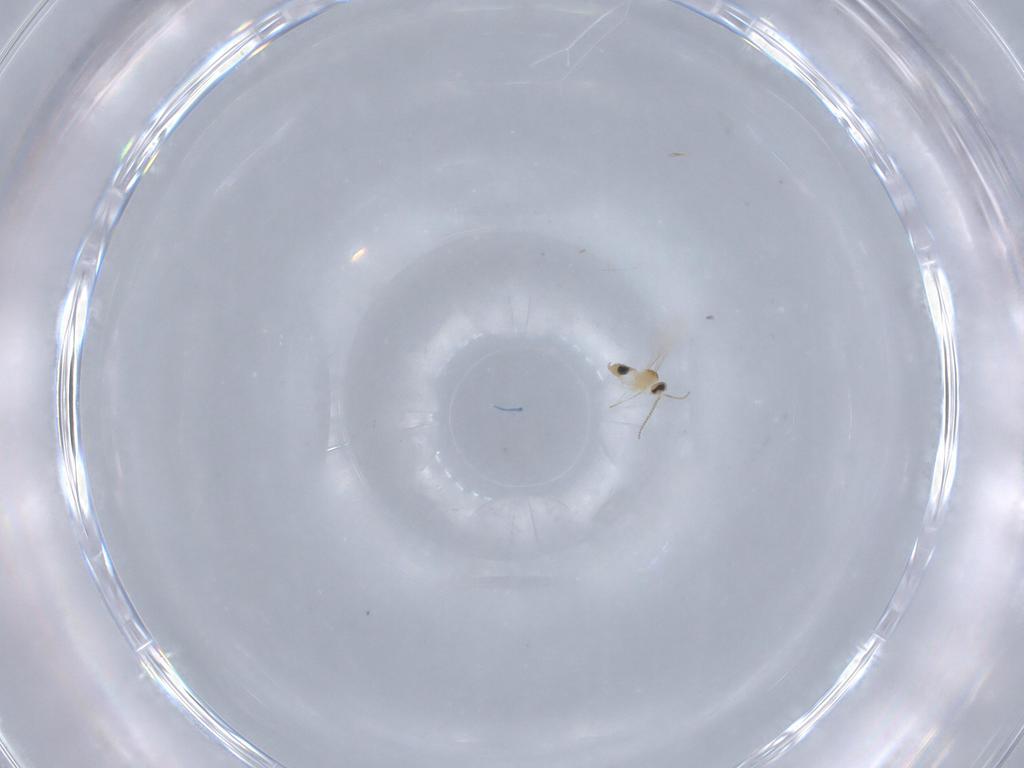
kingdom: Animalia
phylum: Arthropoda
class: Insecta
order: Diptera
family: Cecidomyiidae
